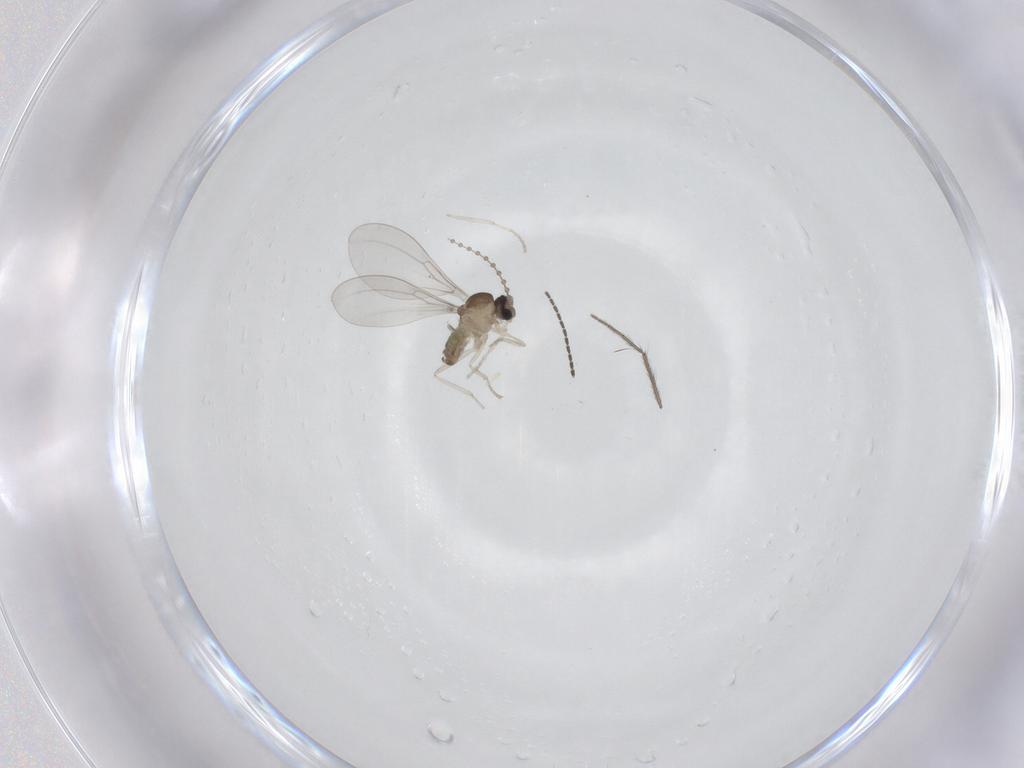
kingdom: Animalia
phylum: Arthropoda
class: Insecta
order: Diptera
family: Cecidomyiidae
